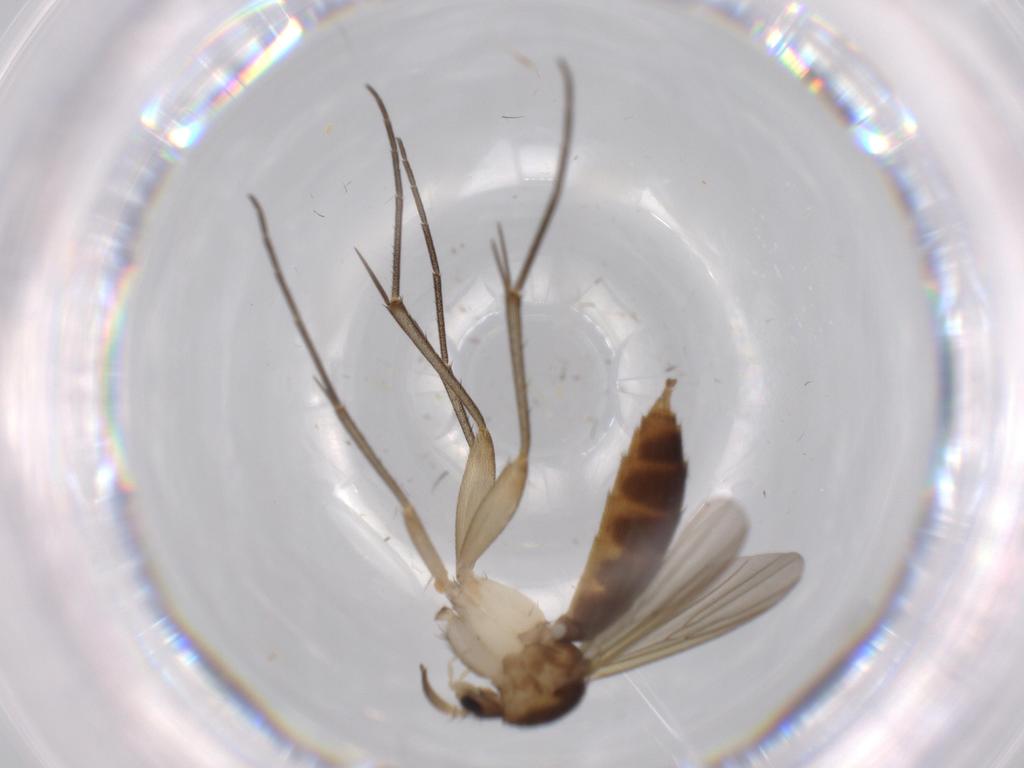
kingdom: Animalia
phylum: Arthropoda
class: Insecta
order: Diptera
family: Mycetophilidae
